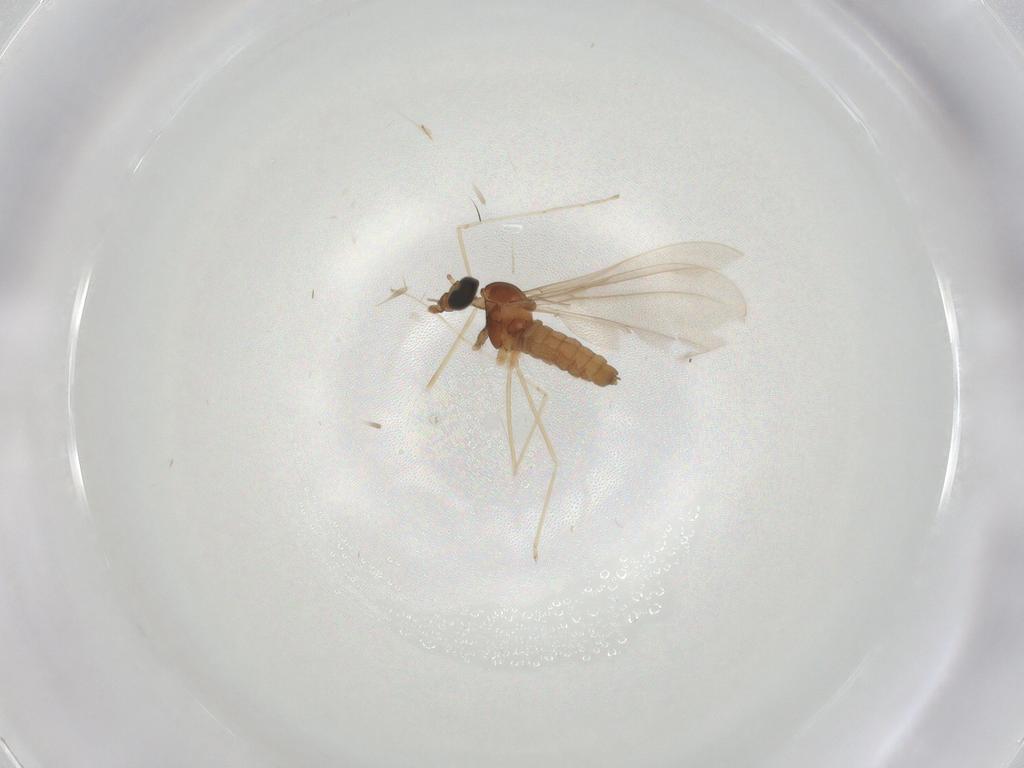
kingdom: Animalia
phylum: Arthropoda
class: Insecta
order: Diptera
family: Cecidomyiidae
